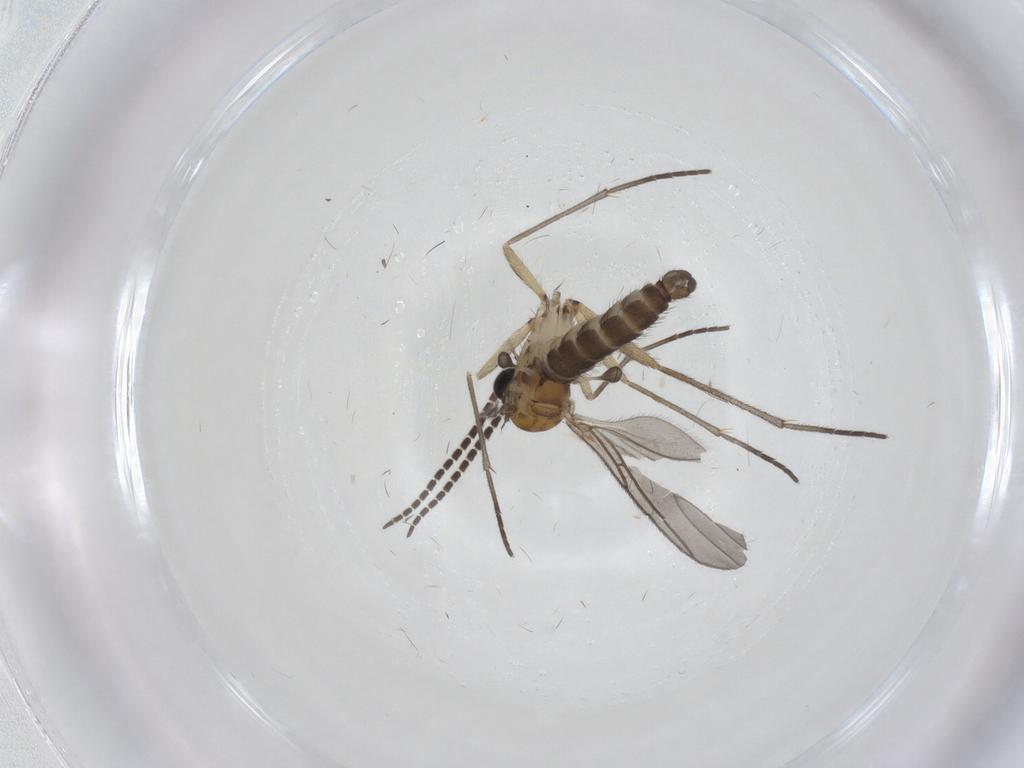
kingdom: Animalia
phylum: Arthropoda
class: Insecta
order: Diptera
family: Sciaridae
